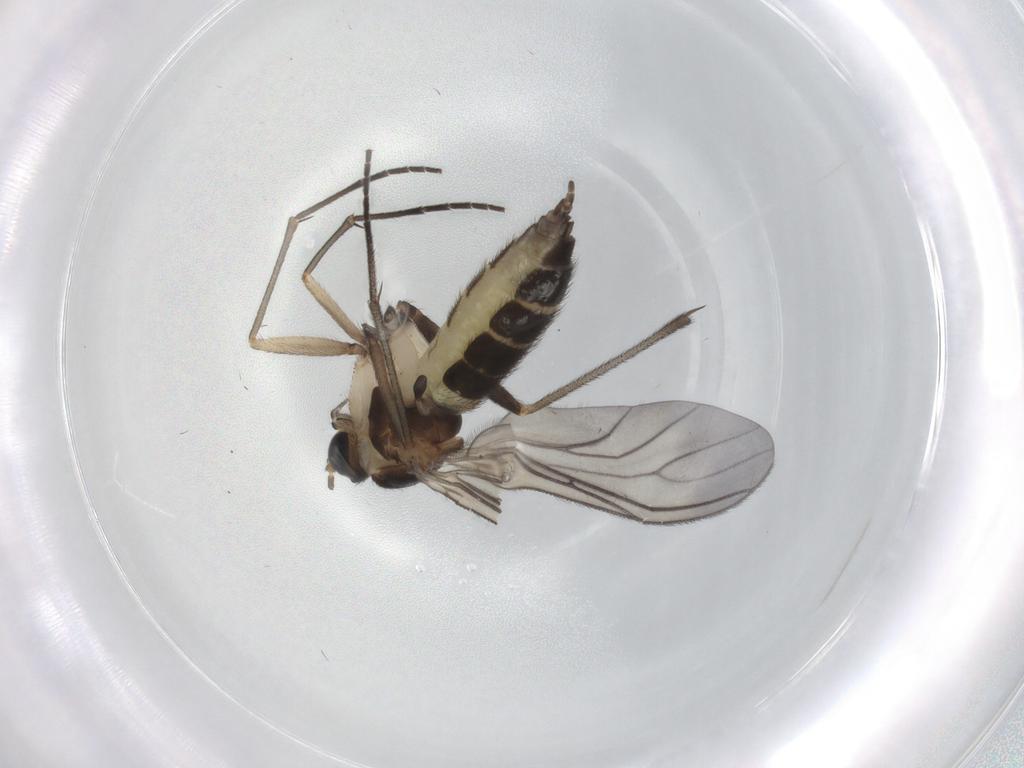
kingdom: Animalia
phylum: Arthropoda
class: Insecta
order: Diptera
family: Sciaridae
